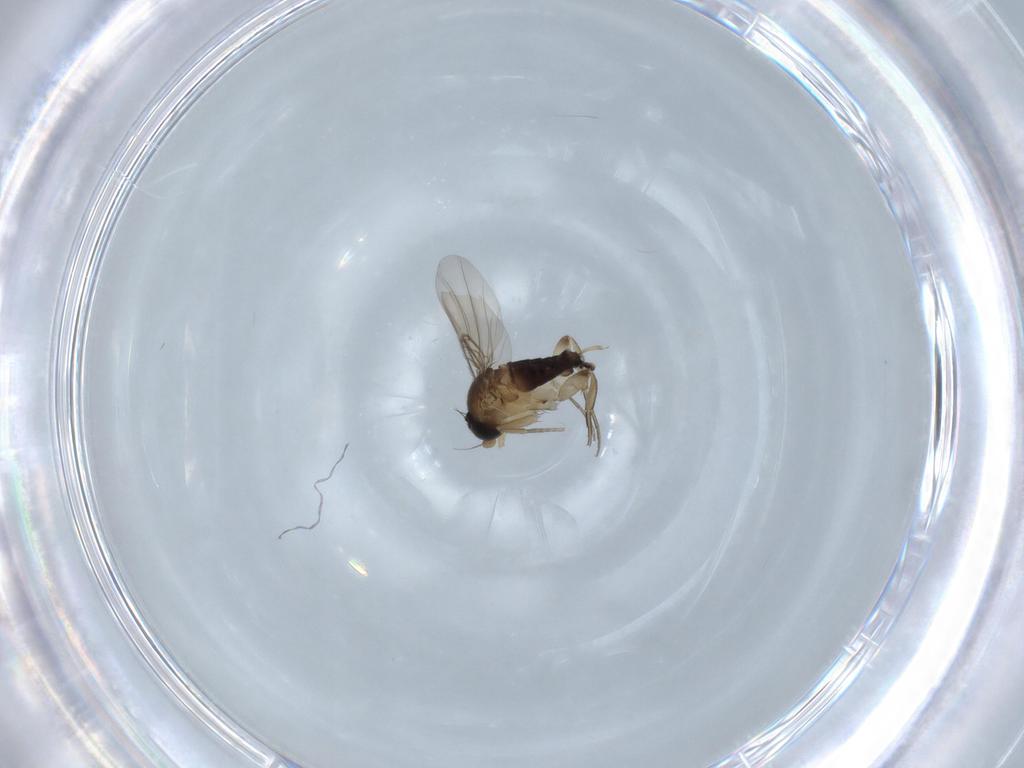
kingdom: Animalia
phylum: Arthropoda
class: Insecta
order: Diptera
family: Phoridae
